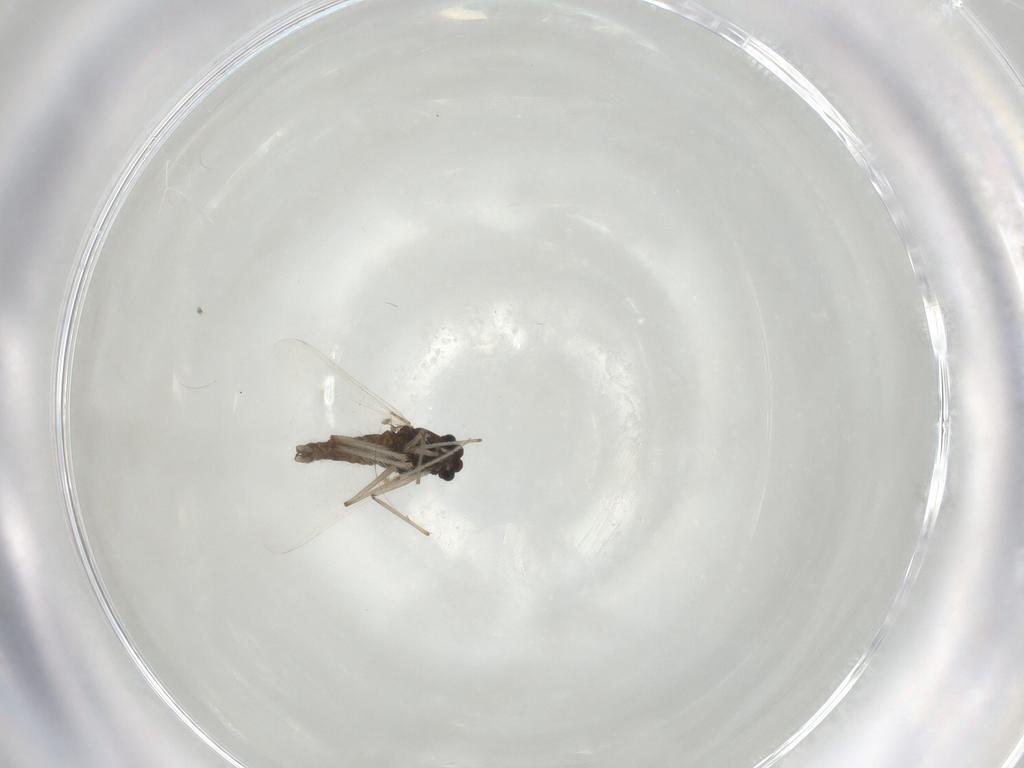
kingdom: Animalia
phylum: Arthropoda
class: Insecta
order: Diptera
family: Chironomidae
